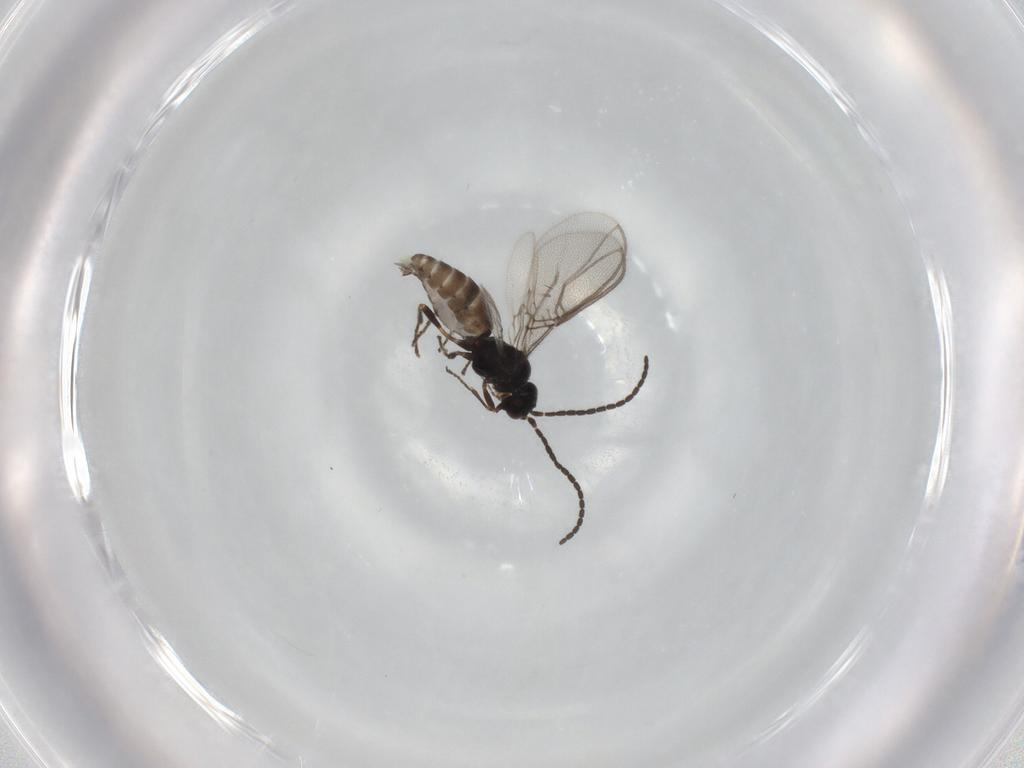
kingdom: Animalia
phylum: Arthropoda
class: Insecta
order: Hymenoptera
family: Braconidae
